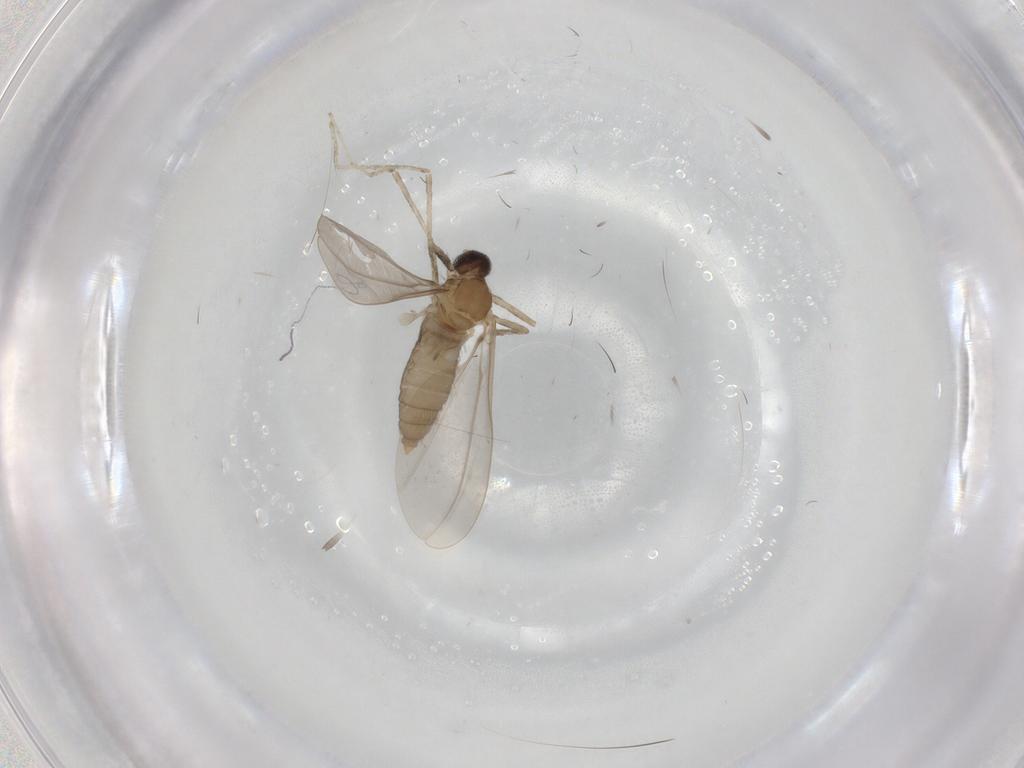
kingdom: Animalia
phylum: Arthropoda
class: Insecta
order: Diptera
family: Cecidomyiidae
